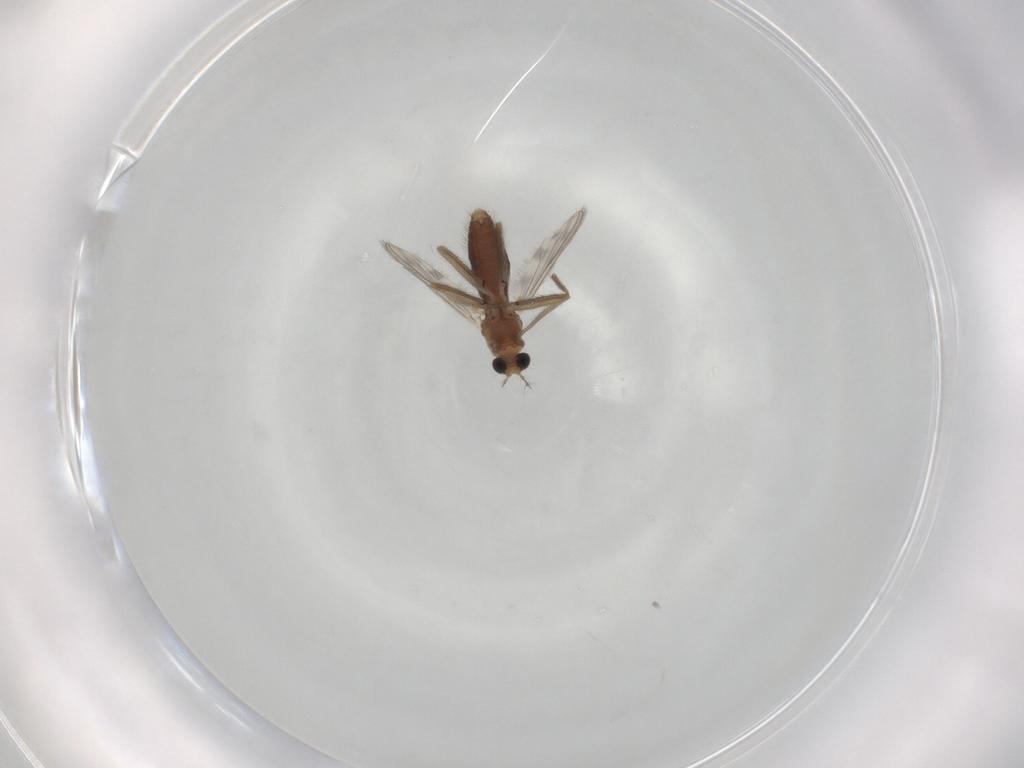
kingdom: Animalia
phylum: Arthropoda
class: Insecta
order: Diptera
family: Chironomidae
